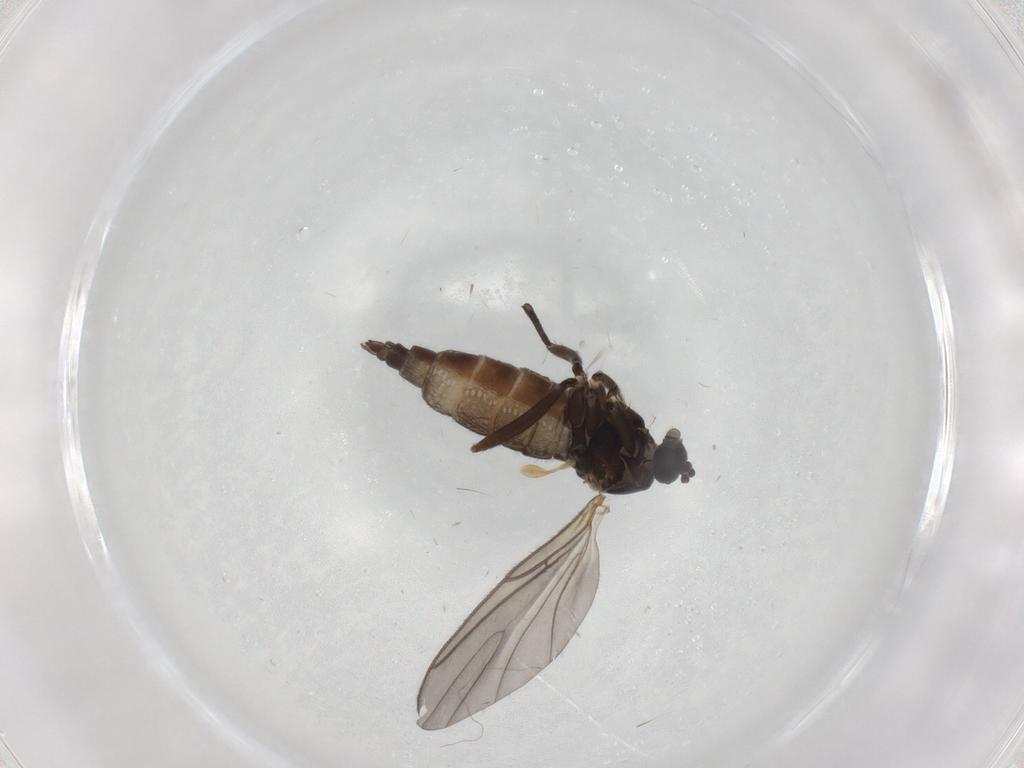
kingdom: Animalia
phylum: Arthropoda
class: Insecta
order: Diptera
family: Sciaridae
